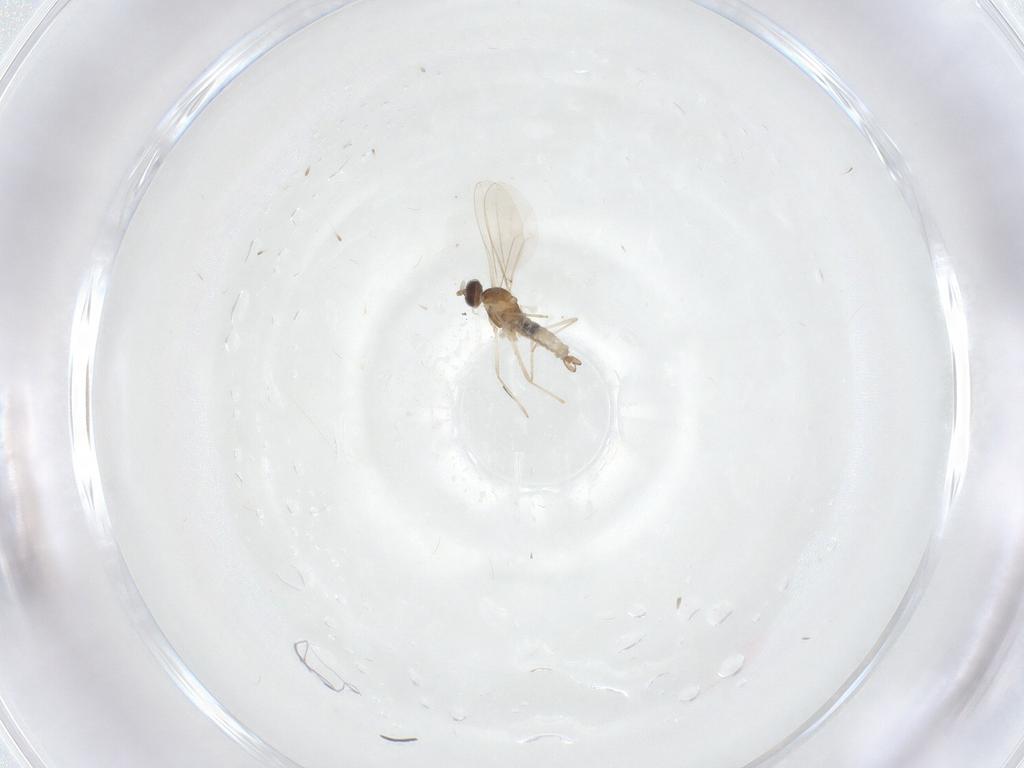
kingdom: Animalia
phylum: Arthropoda
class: Insecta
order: Diptera
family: Cecidomyiidae
